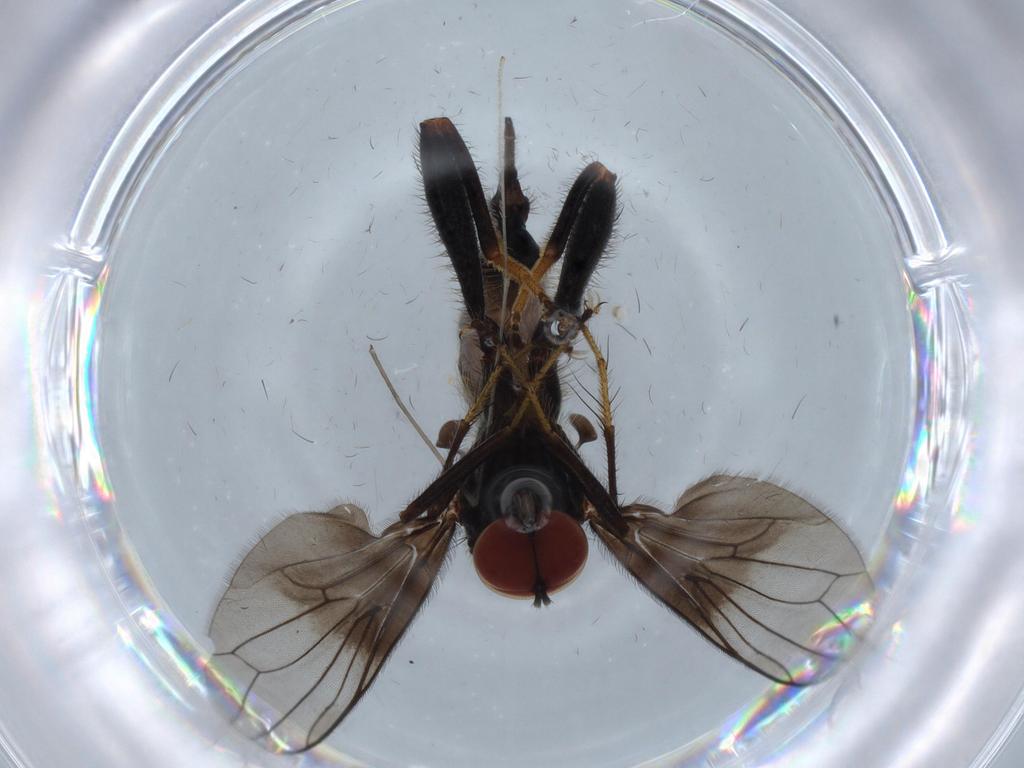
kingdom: Animalia
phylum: Arthropoda
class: Insecta
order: Diptera
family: Hybotidae
